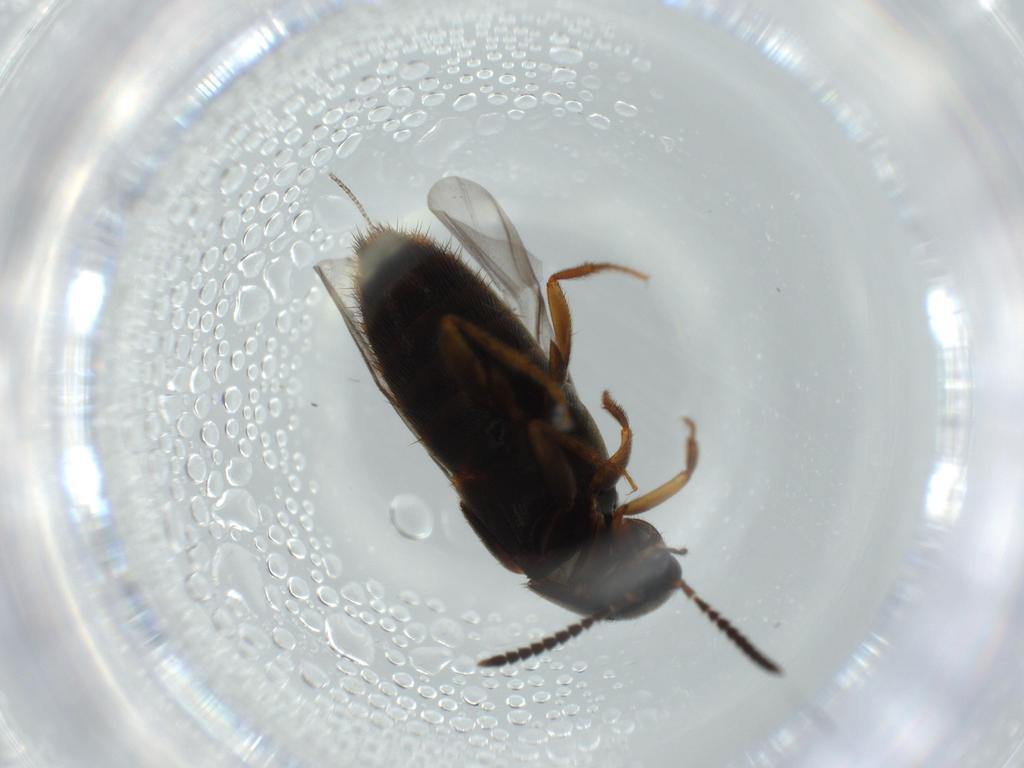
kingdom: Animalia
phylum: Arthropoda
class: Insecta
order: Coleoptera
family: Staphylinidae
